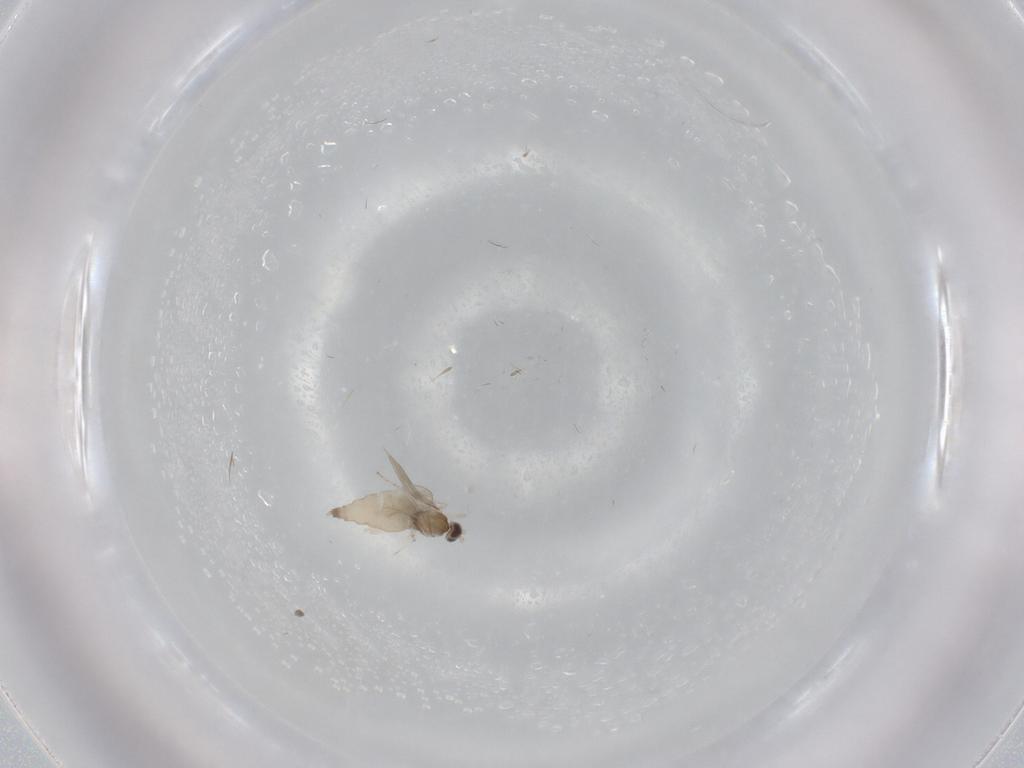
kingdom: Animalia
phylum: Arthropoda
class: Insecta
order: Diptera
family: Cecidomyiidae
